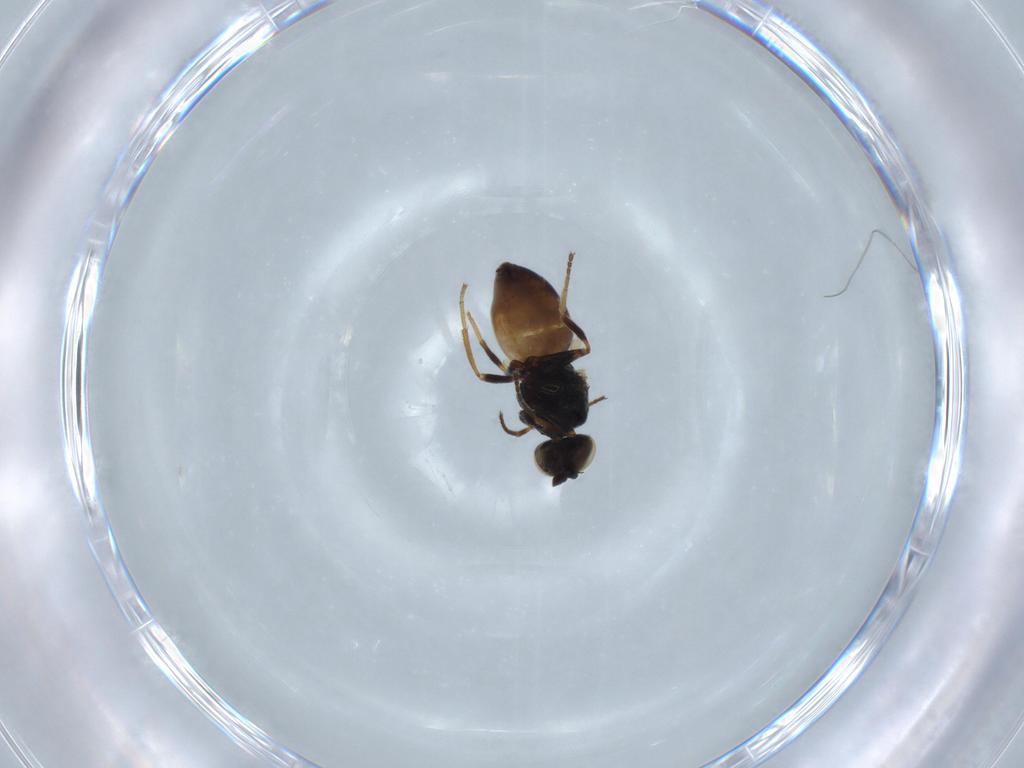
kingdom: Animalia
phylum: Arthropoda
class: Insecta
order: Diptera
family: Chloropidae
